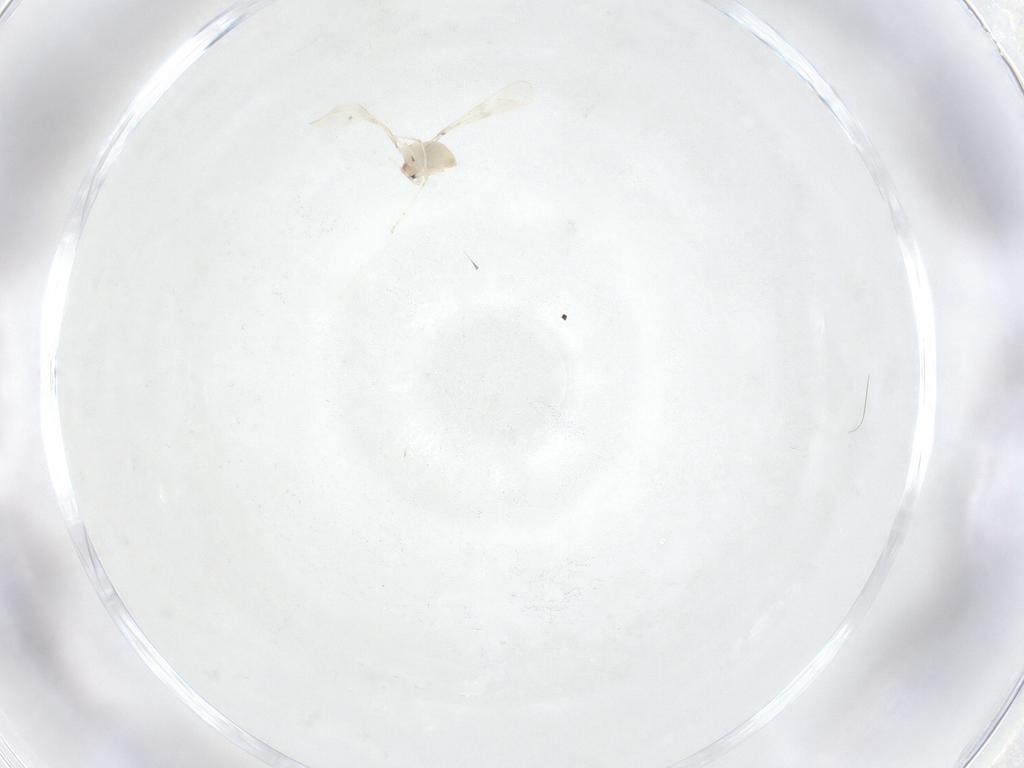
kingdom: Animalia
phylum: Arthropoda
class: Insecta
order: Diptera
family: Cecidomyiidae
